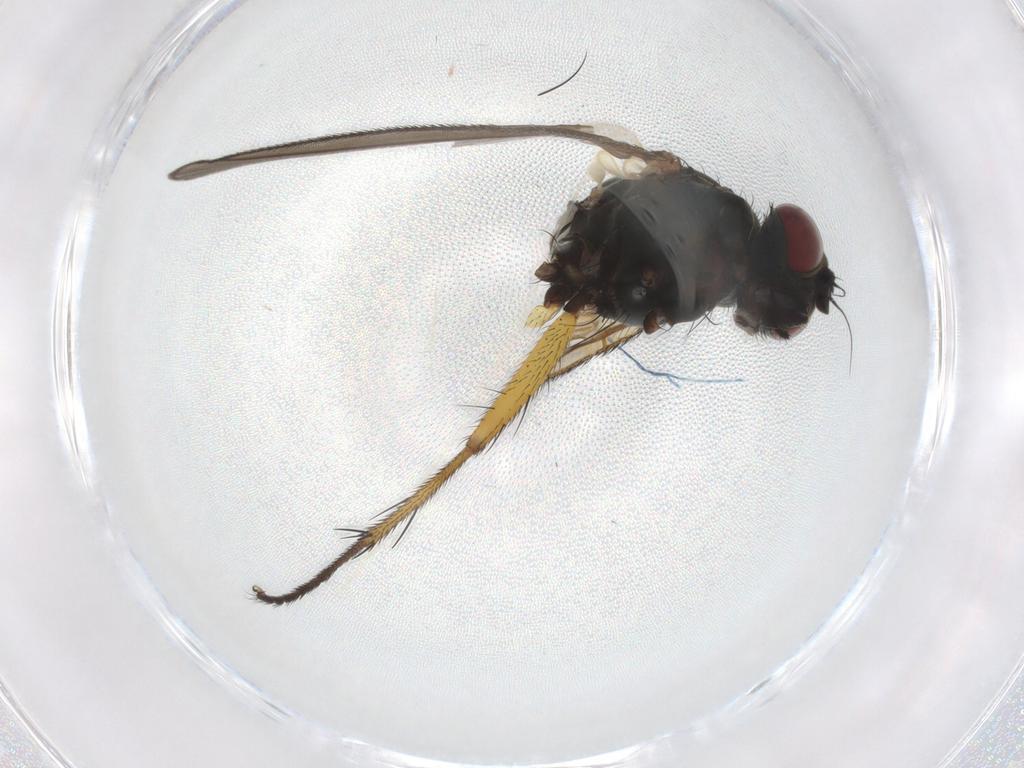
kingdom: Animalia
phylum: Arthropoda
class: Insecta
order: Diptera
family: Muscidae
